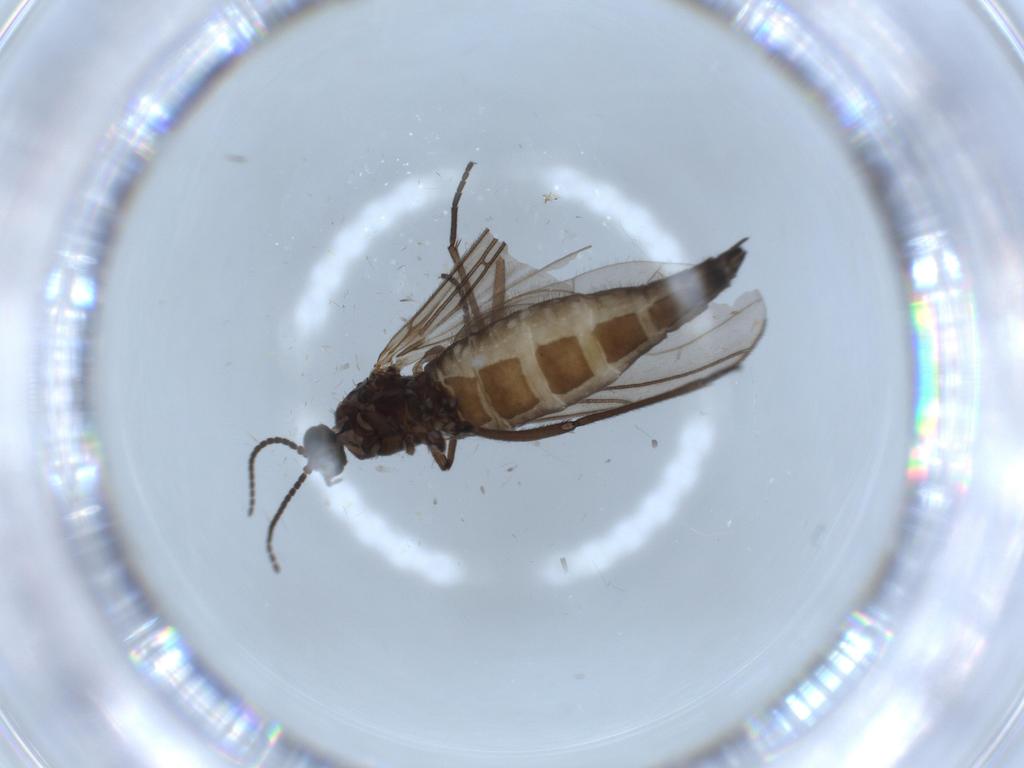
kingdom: Animalia
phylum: Arthropoda
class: Insecta
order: Diptera
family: Sciaridae
